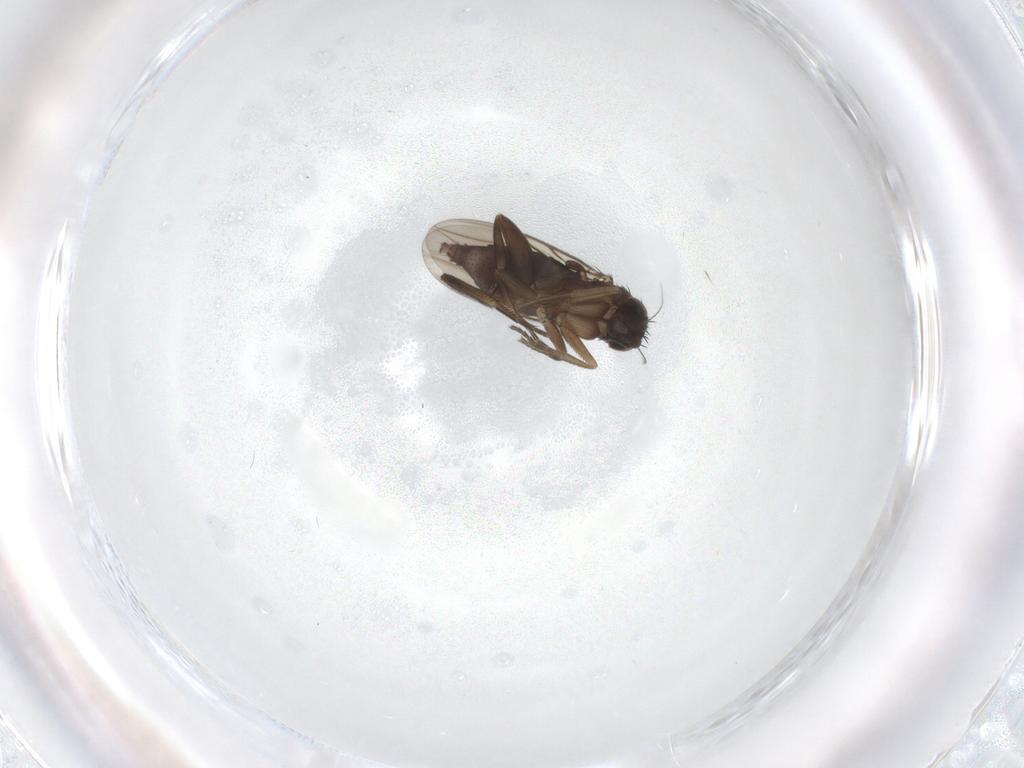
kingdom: Animalia
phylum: Arthropoda
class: Insecta
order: Diptera
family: Phoridae
